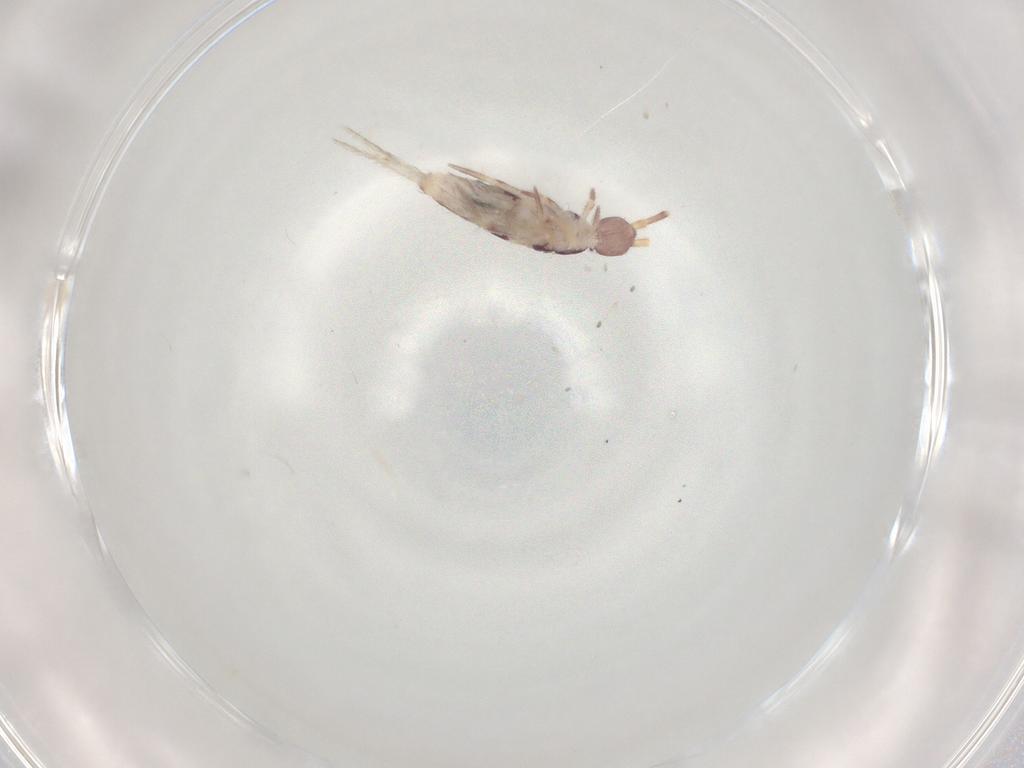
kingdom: Animalia
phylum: Arthropoda
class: Collembola
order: Entomobryomorpha
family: Entomobryidae
